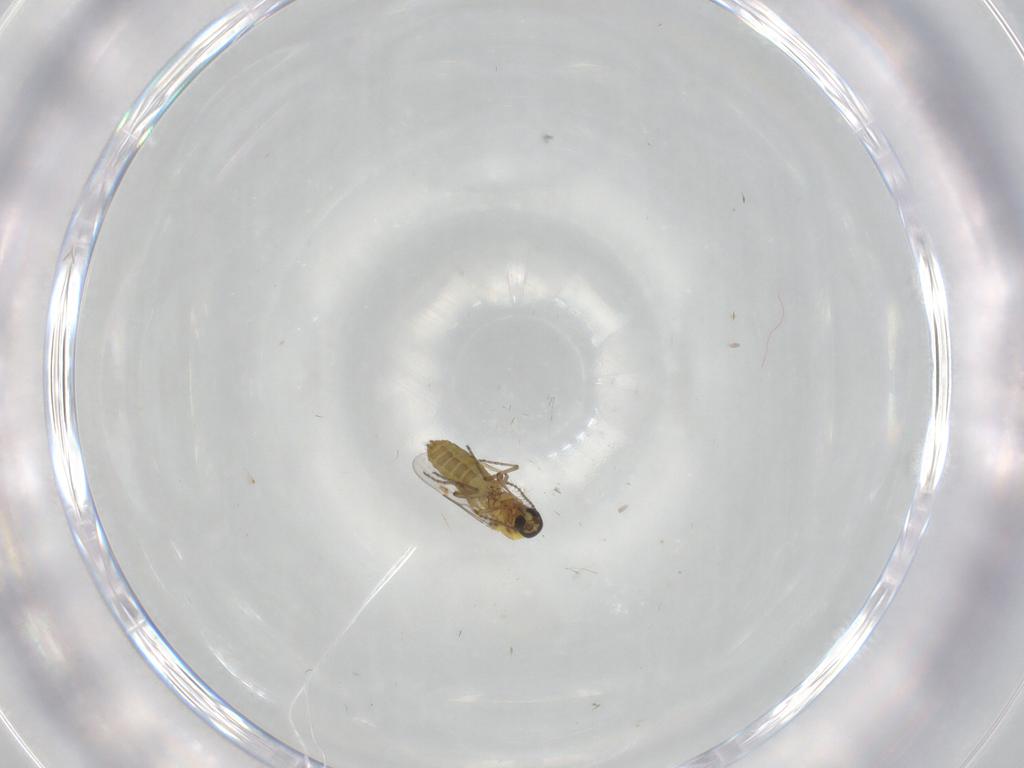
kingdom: Animalia
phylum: Arthropoda
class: Insecta
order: Diptera
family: Ceratopogonidae
